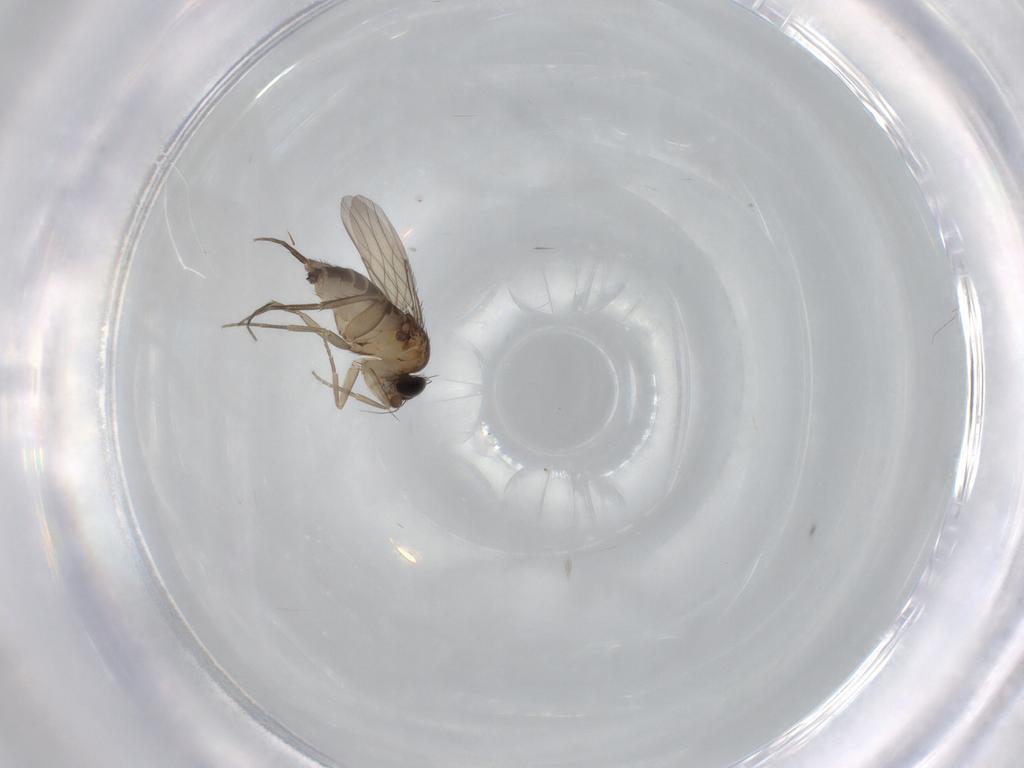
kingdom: Animalia
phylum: Arthropoda
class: Insecta
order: Diptera
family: Phoridae
